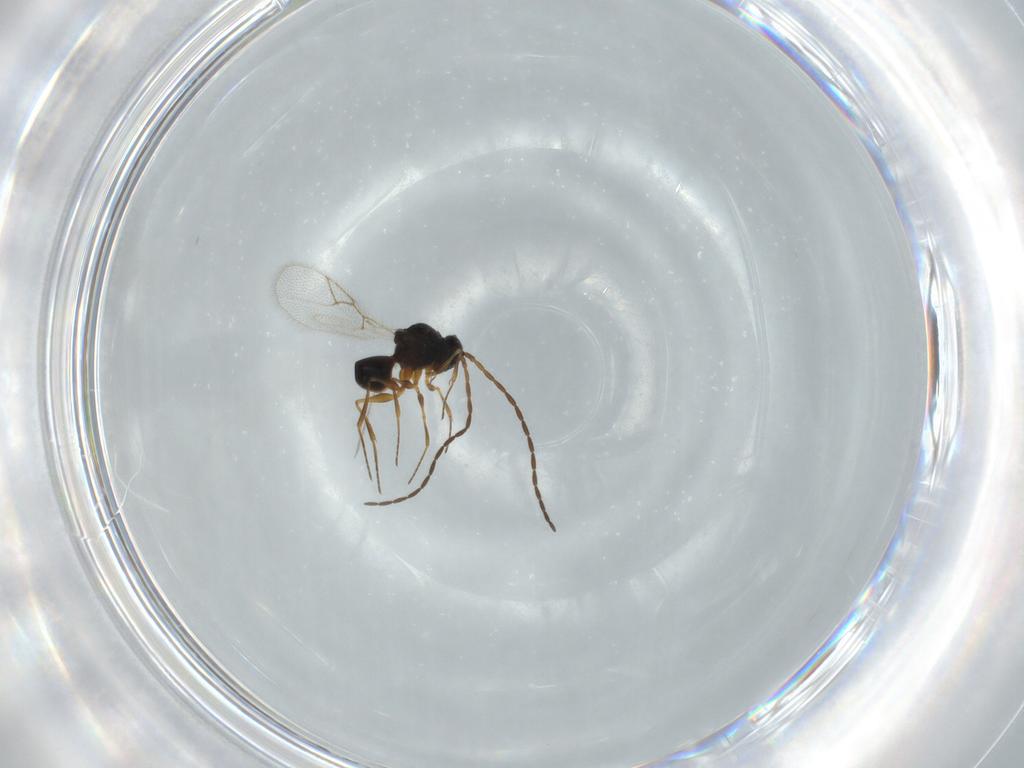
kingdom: Animalia
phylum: Arthropoda
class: Insecta
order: Hymenoptera
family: Figitidae
